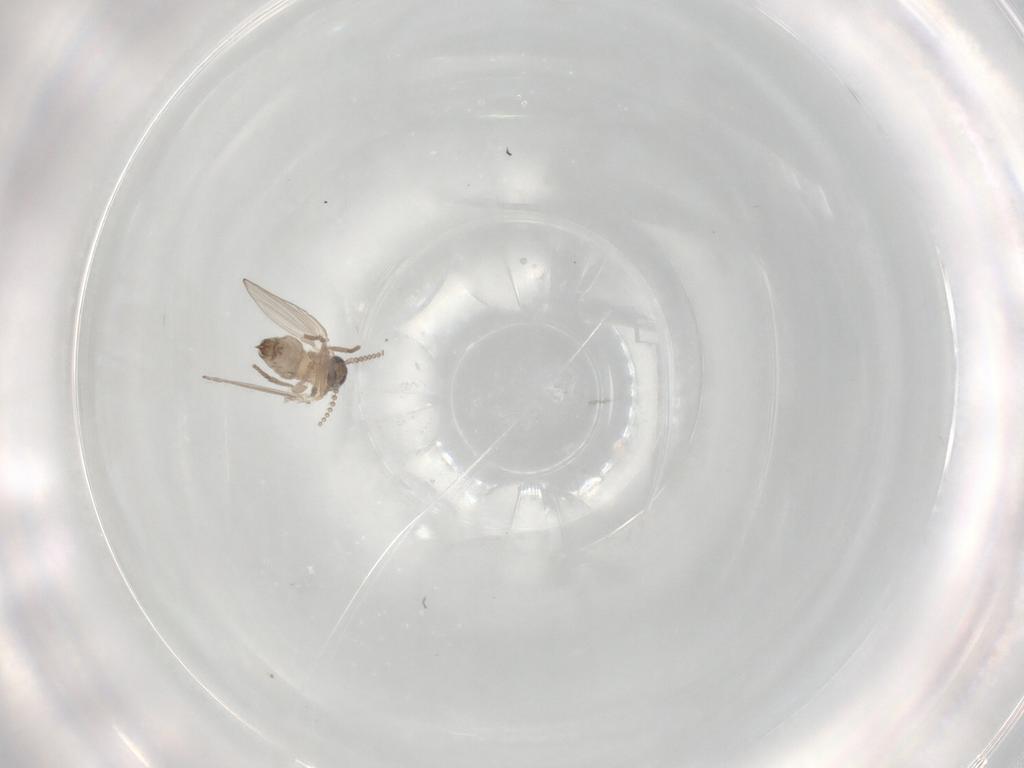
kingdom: Animalia
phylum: Arthropoda
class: Insecta
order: Diptera
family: Psychodidae
